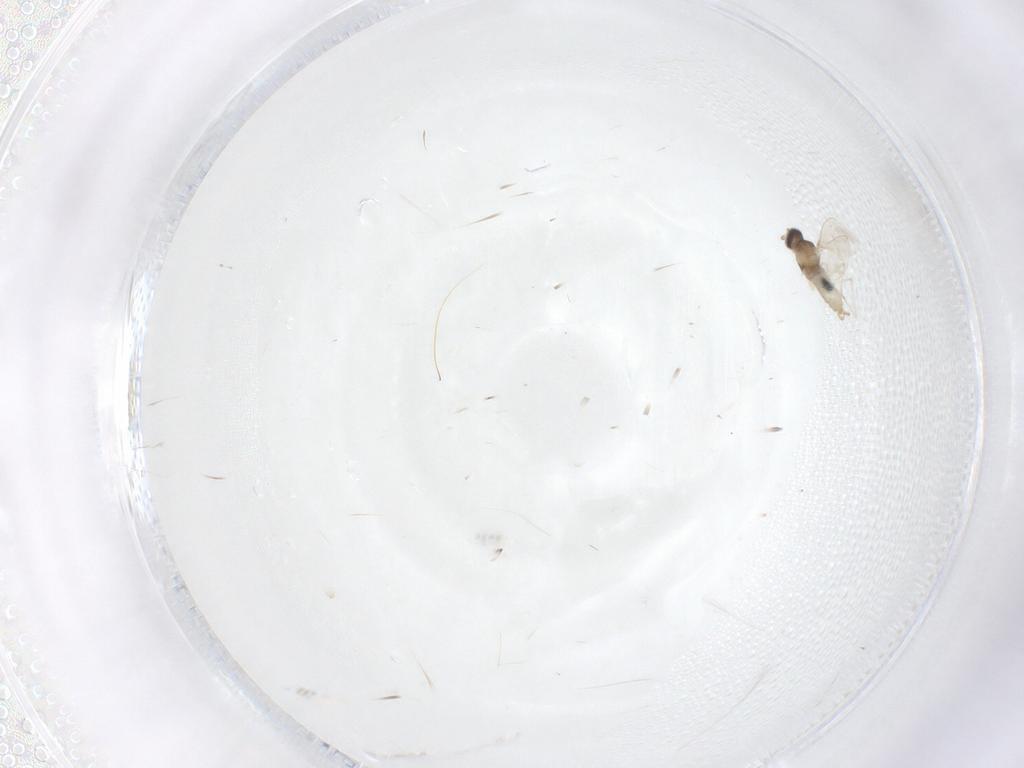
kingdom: Animalia
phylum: Arthropoda
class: Insecta
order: Diptera
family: Cecidomyiidae
